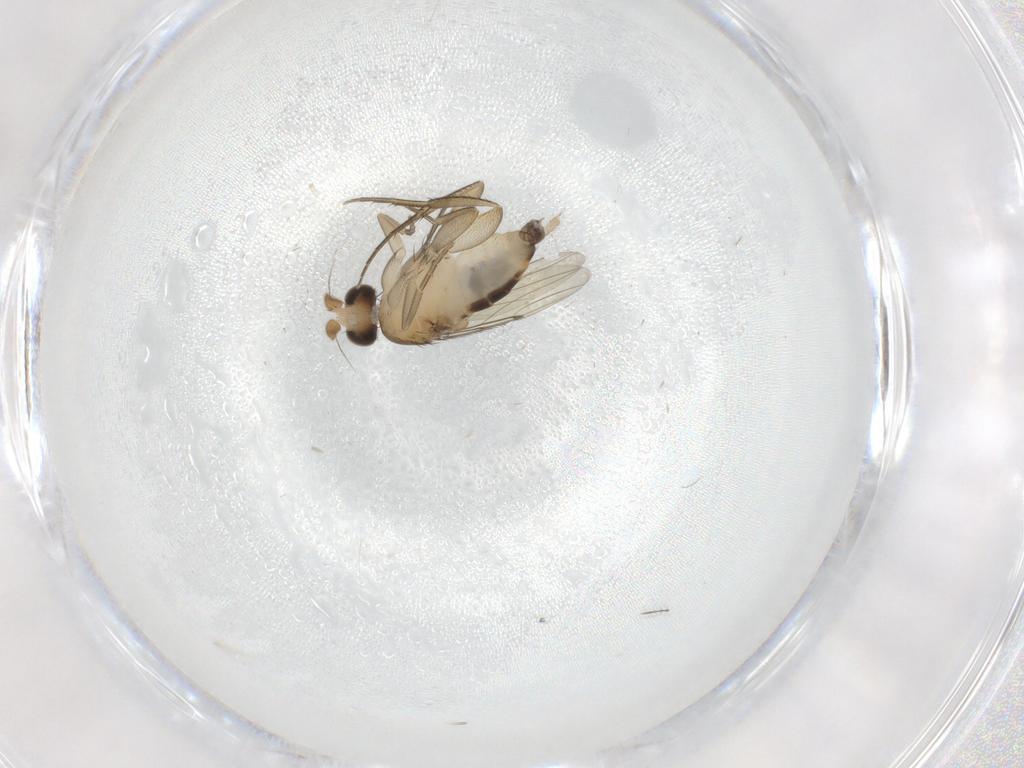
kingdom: Animalia
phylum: Arthropoda
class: Insecta
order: Diptera
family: Phoridae
